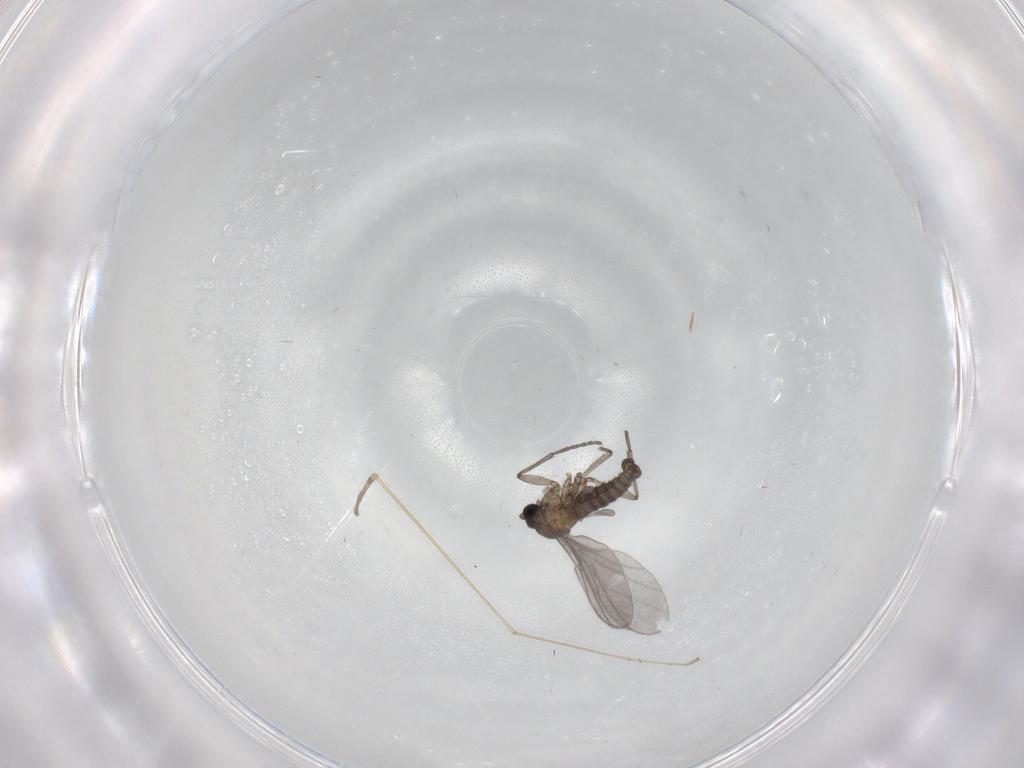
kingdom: Animalia
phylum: Arthropoda
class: Insecta
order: Diptera
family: Sciaridae
